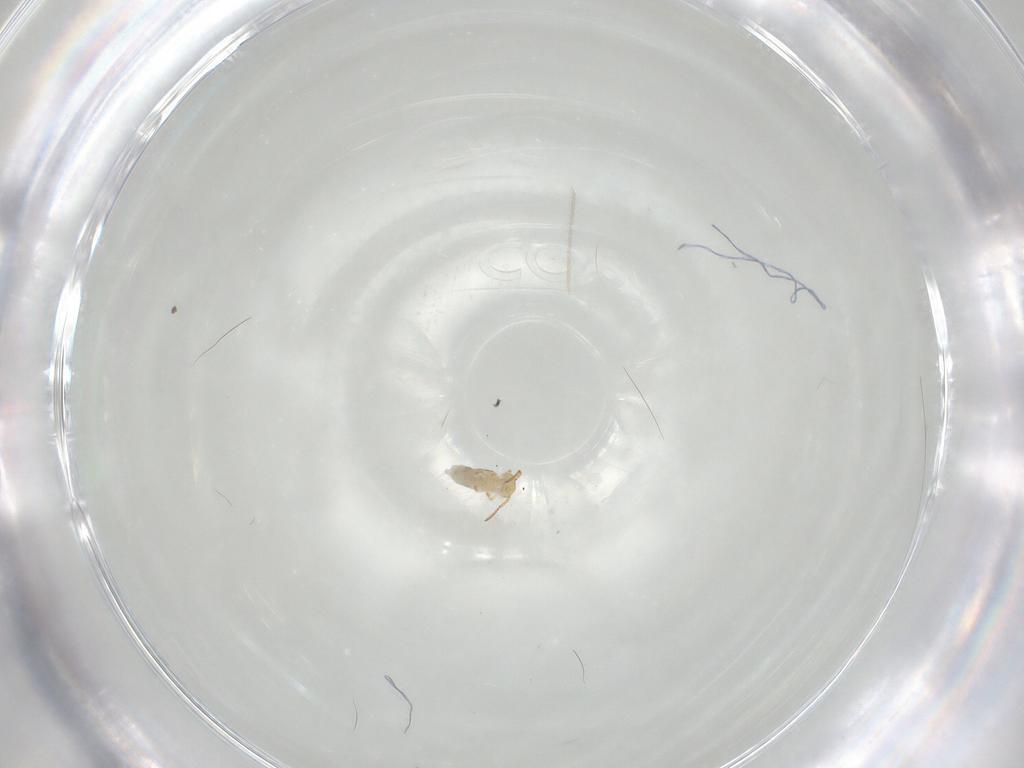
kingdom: Animalia
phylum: Arthropoda
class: Collembola
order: Symphypleona
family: Bourletiellidae
